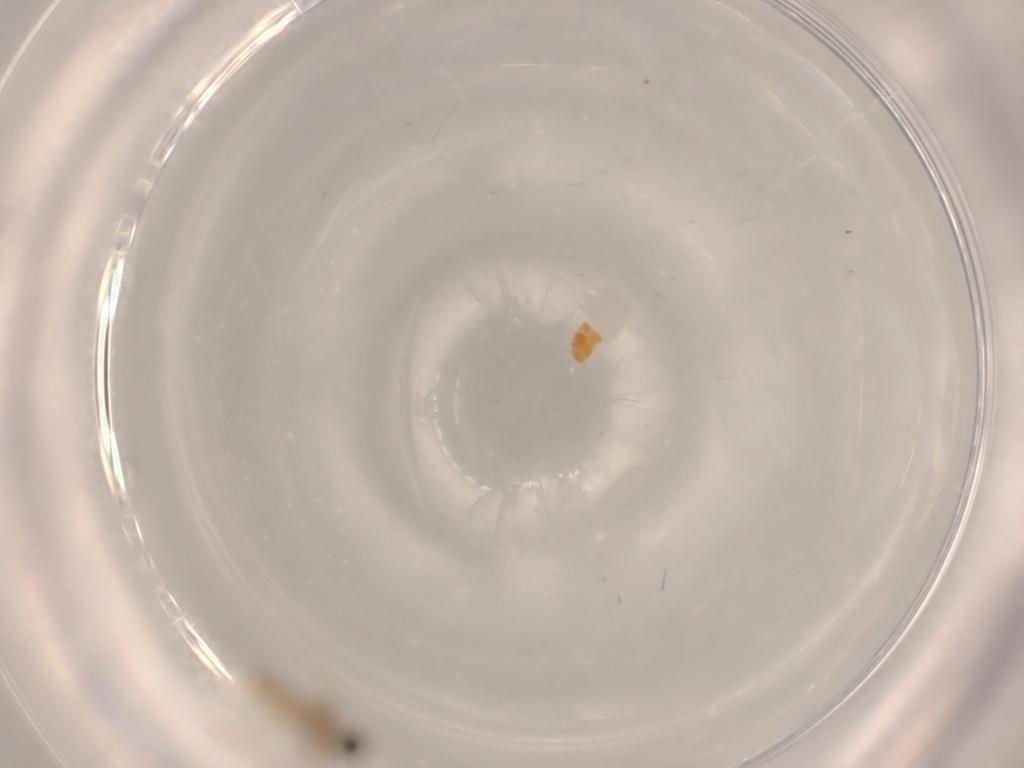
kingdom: Animalia
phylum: Arthropoda
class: Insecta
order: Diptera
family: Cecidomyiidae
